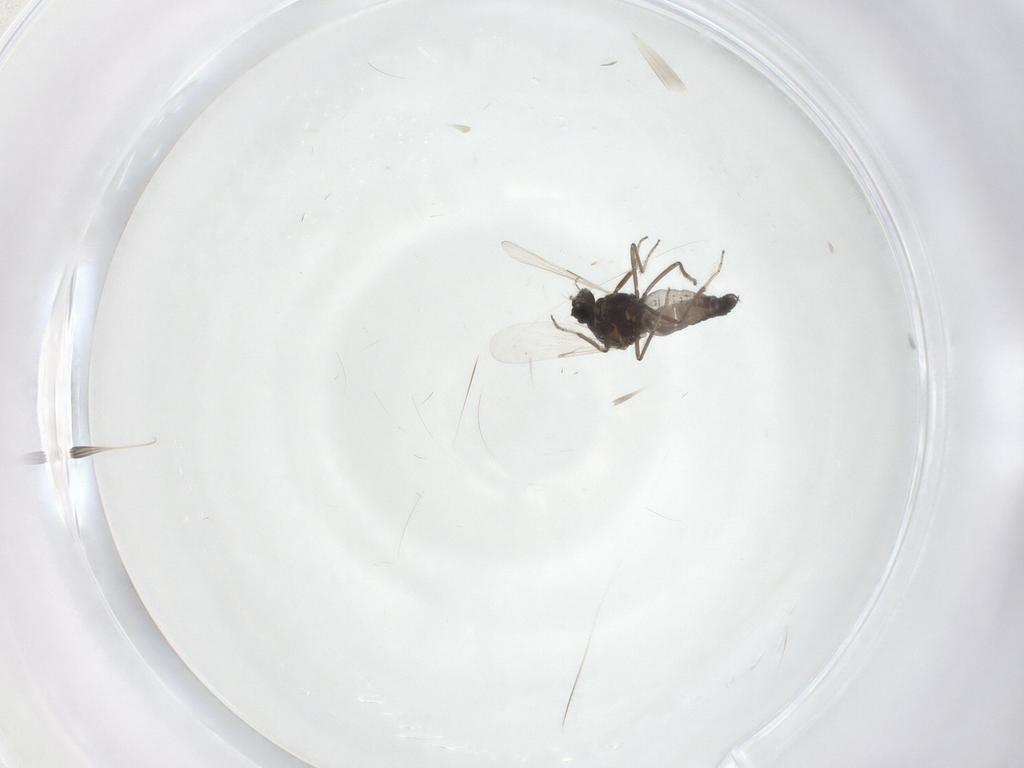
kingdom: Animalia
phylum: Arthropoda
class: Insecta
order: Diptera
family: Ceratopogonidae
